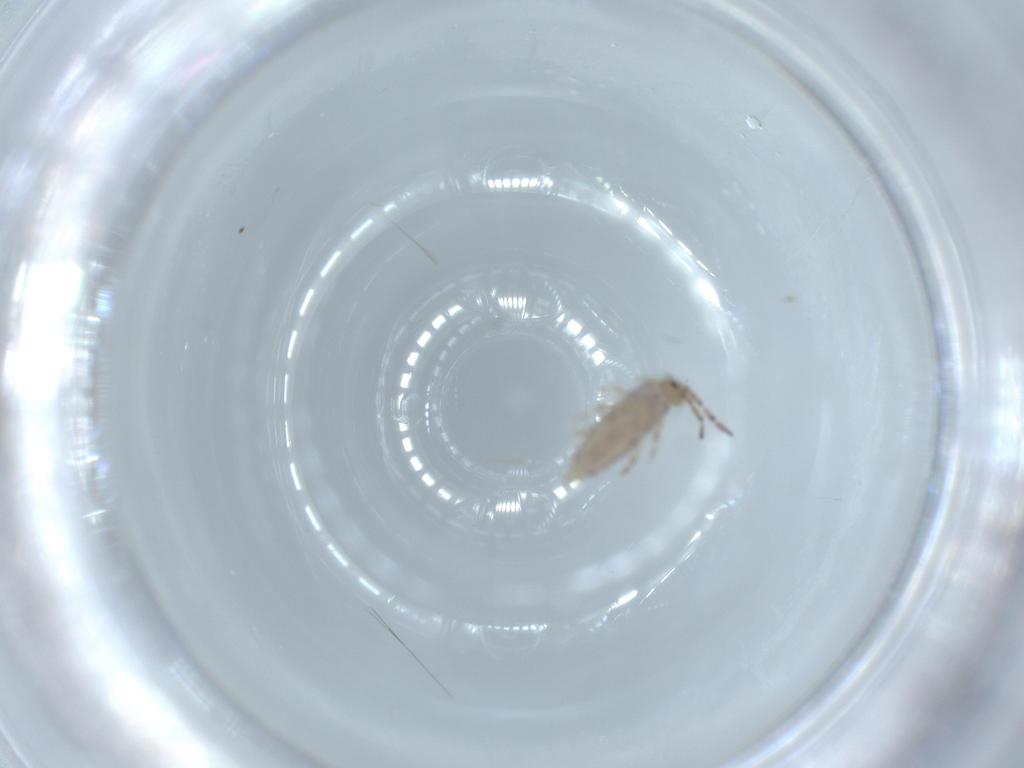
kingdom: Animalia
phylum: Arthropoda
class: Collembola
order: Entomobryomorpha
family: Entomobryidae
